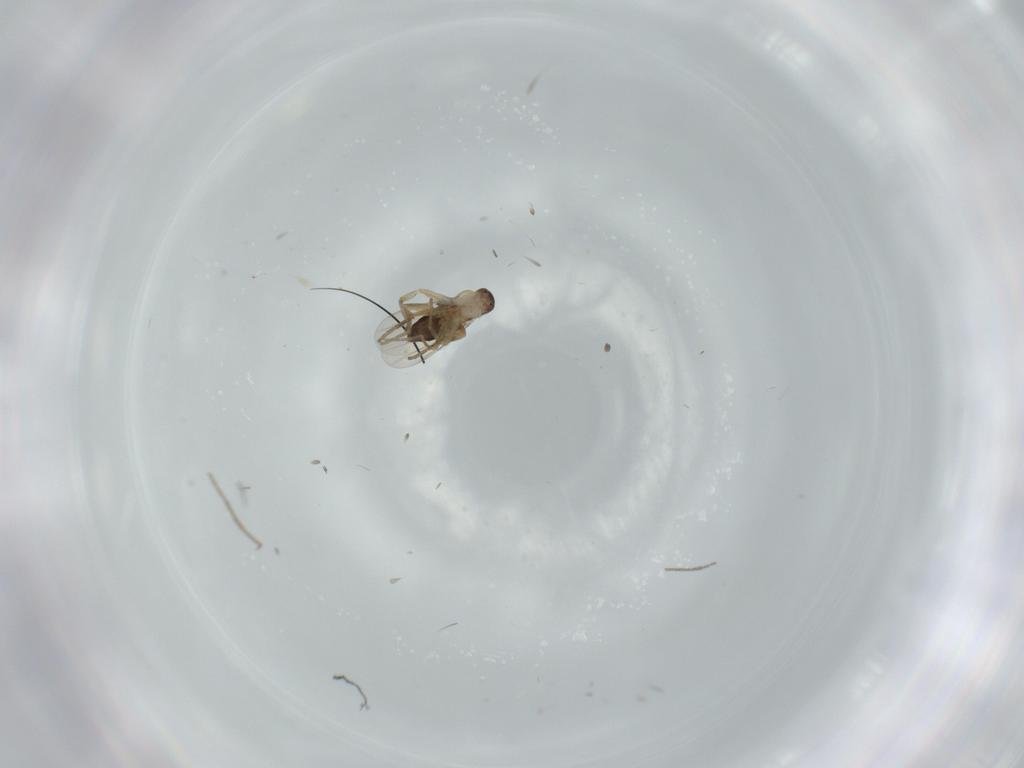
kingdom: Animalia
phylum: Arthropoda
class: Insecta
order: Diptera
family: Phoridae
